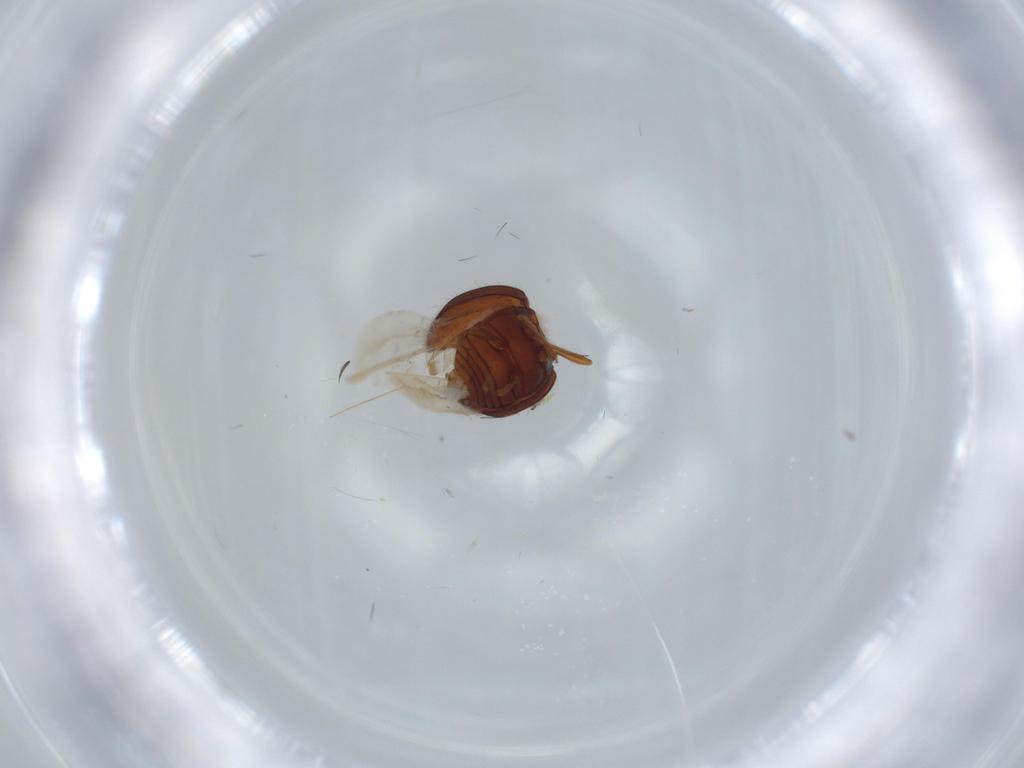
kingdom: Animalia
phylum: Arthropoda
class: Insecta
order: Coleoptera
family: Anamorphidae
